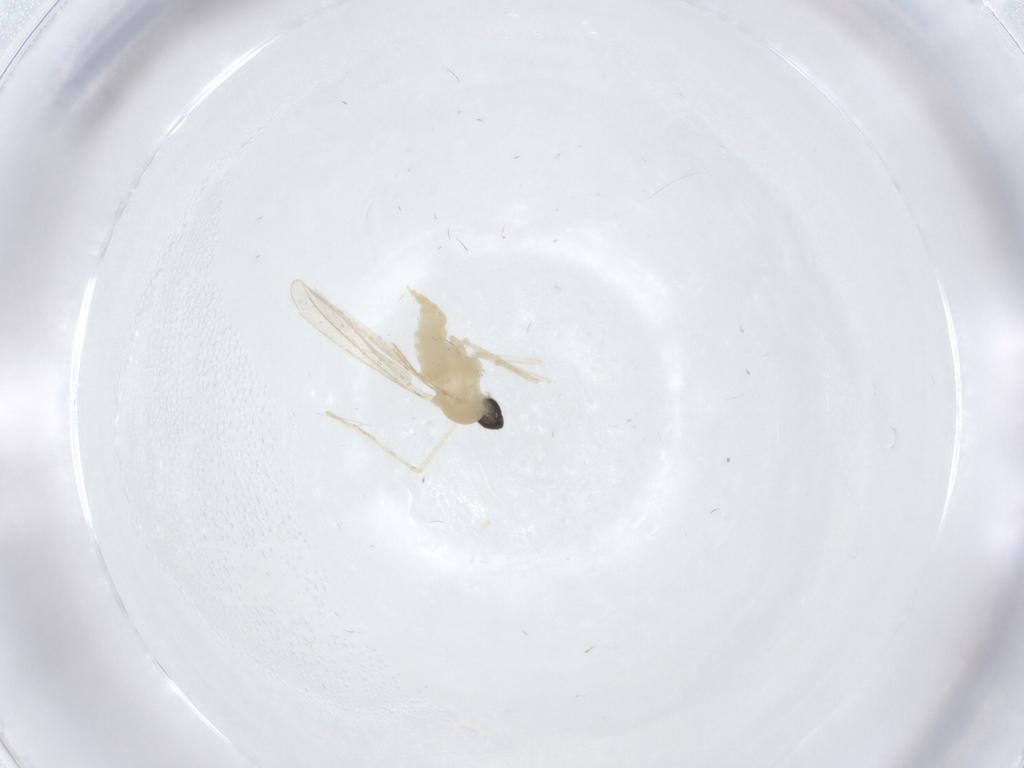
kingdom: Animalia
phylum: Arthropoda
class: Insecta
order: Diptera
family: Cecidomyiidae
